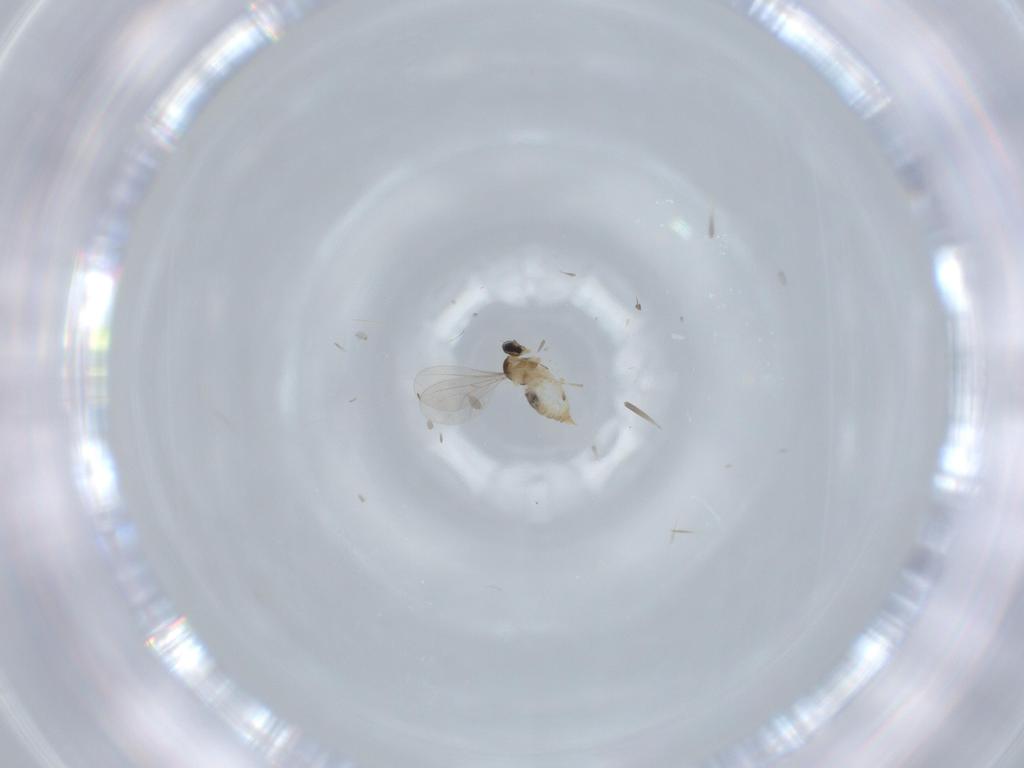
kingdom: Animalia
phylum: Arthropoda
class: Insecta
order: Diptera
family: Cecidomyiidae
